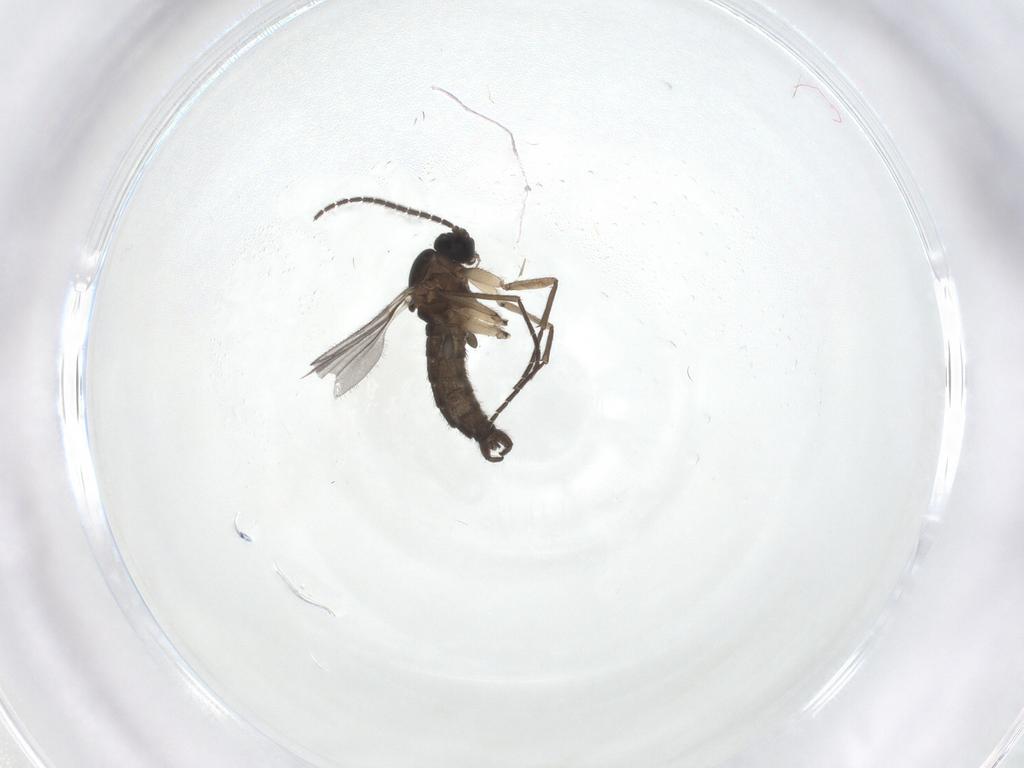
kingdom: Animalia
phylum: Arthropoda
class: Insecta
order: Diptera
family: Sciaridae
